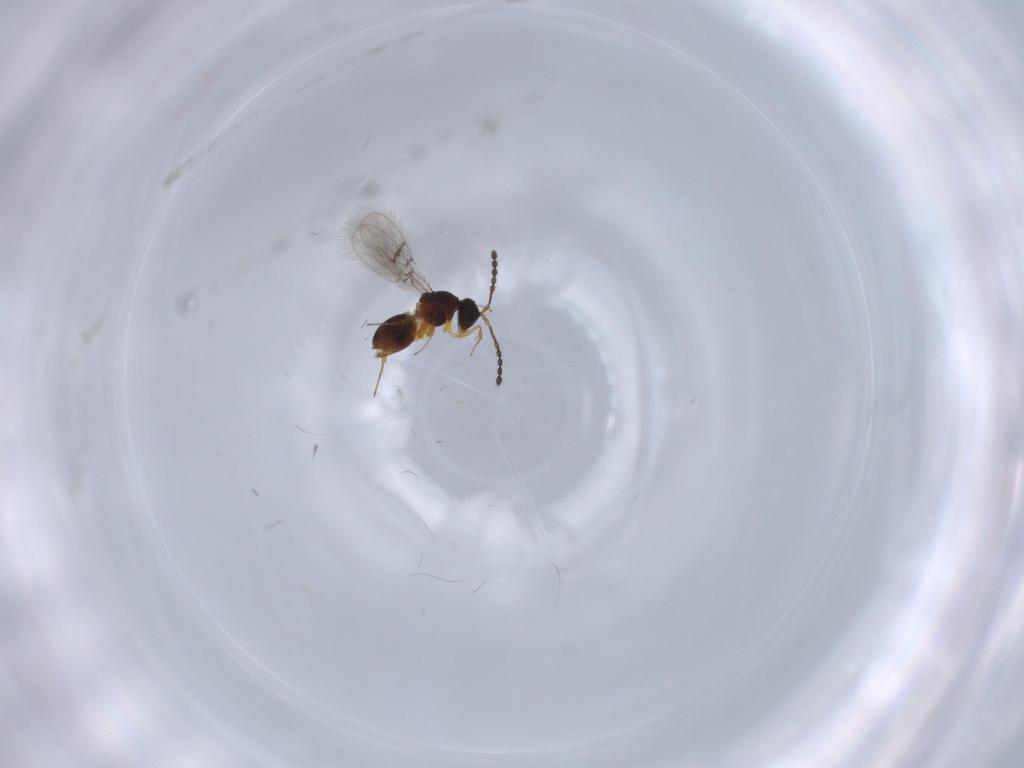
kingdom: Animalia
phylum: Arthropoda
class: Insecta
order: Hymenoptera
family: Figitidae
